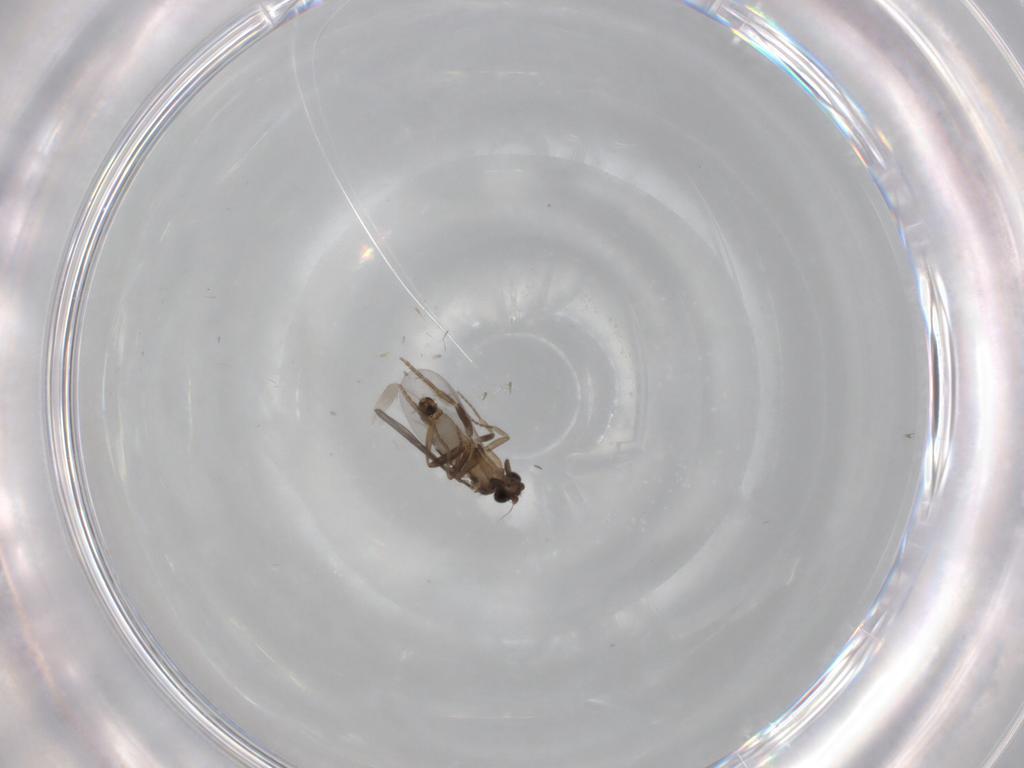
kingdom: Animalia
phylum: Arthropoda
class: Insecta
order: Diptera
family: Keroplatidae
